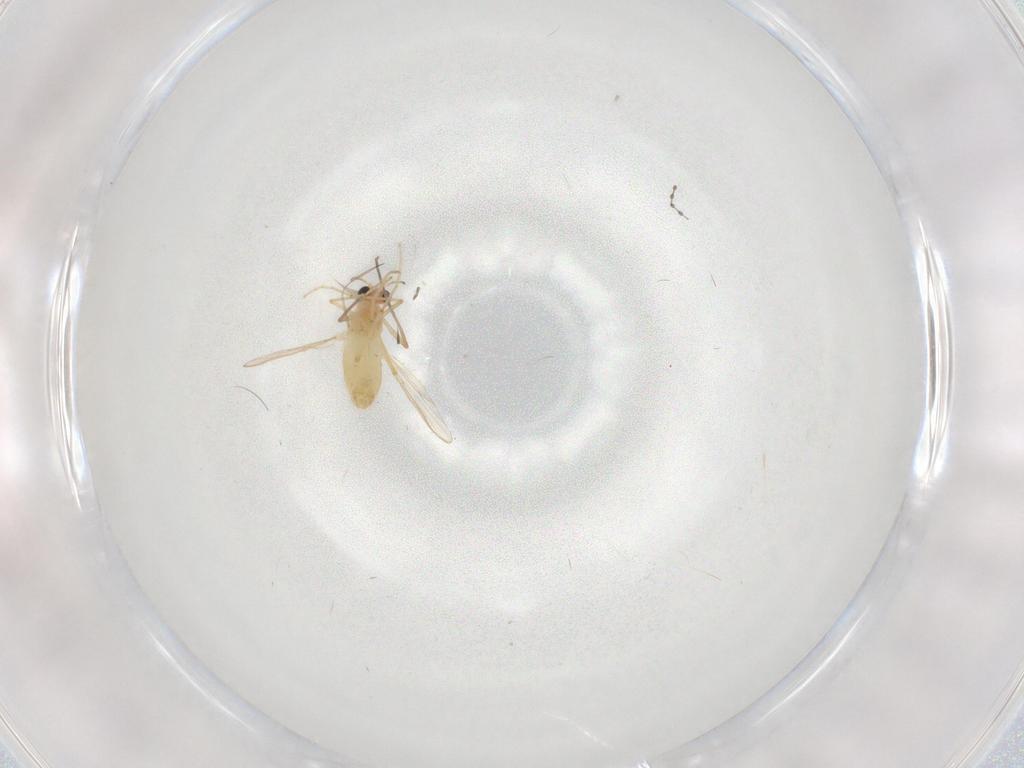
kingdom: Animalia
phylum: Arthropoda
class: Insecta
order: Diptera
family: Chironomidae
